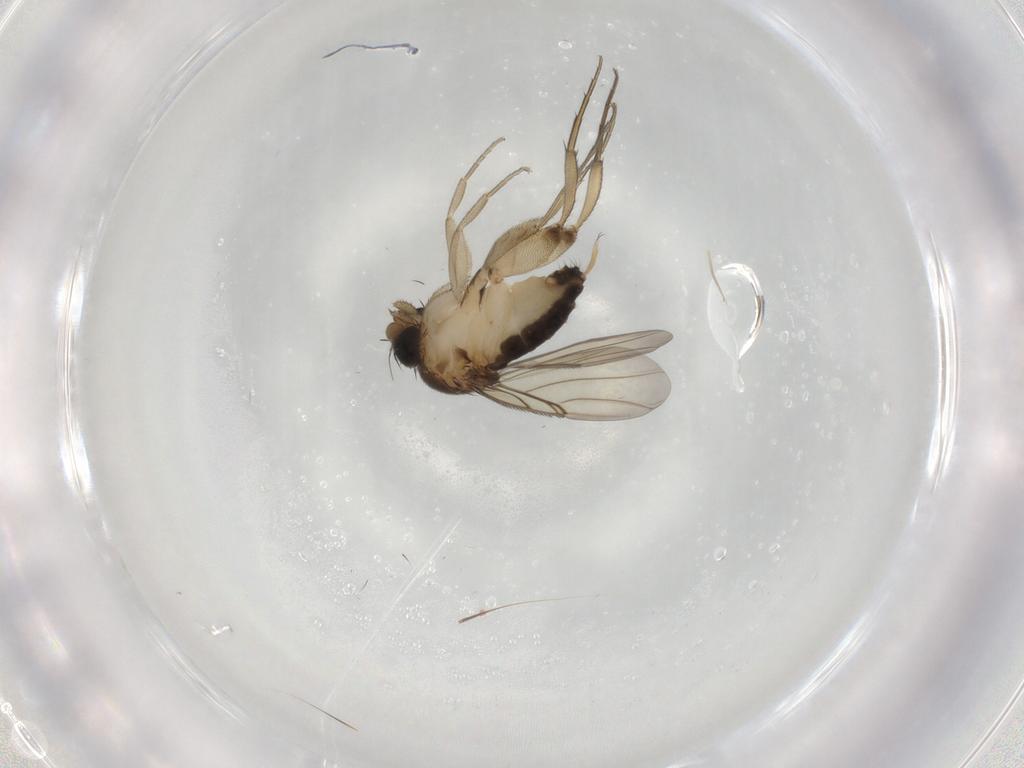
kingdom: Animalia
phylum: Arthropoda
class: Insecta
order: Diptera
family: Phoridae
